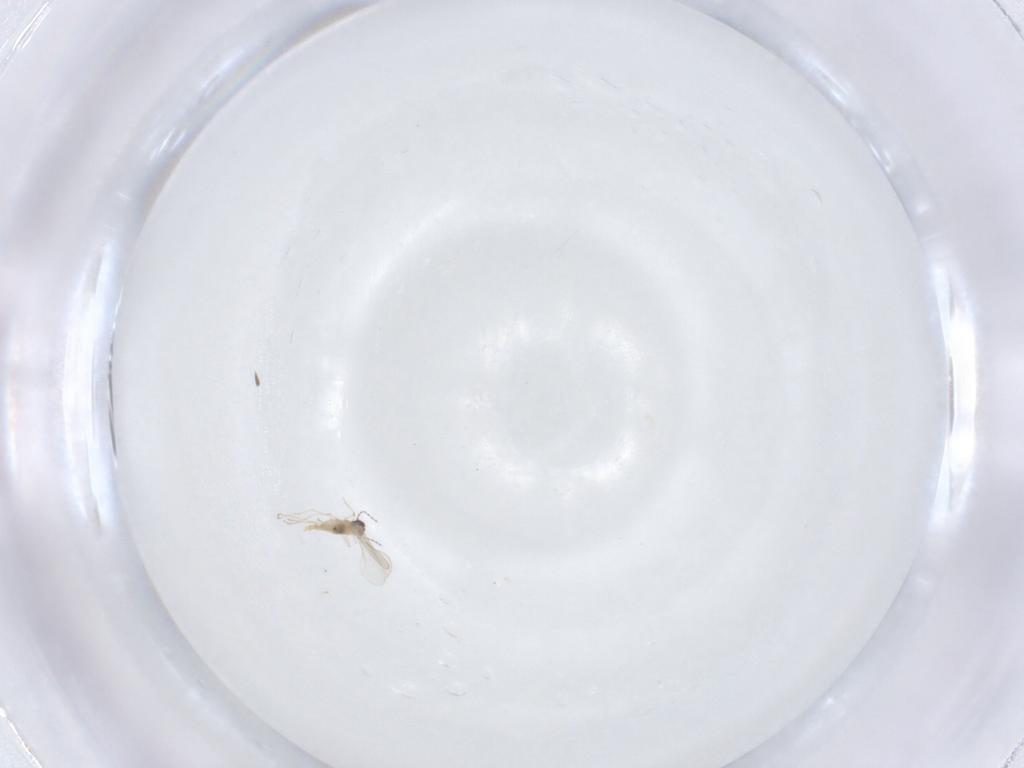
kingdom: Animalia
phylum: Arthropoda
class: Insecta
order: Diptera
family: Cecidomyiidae
